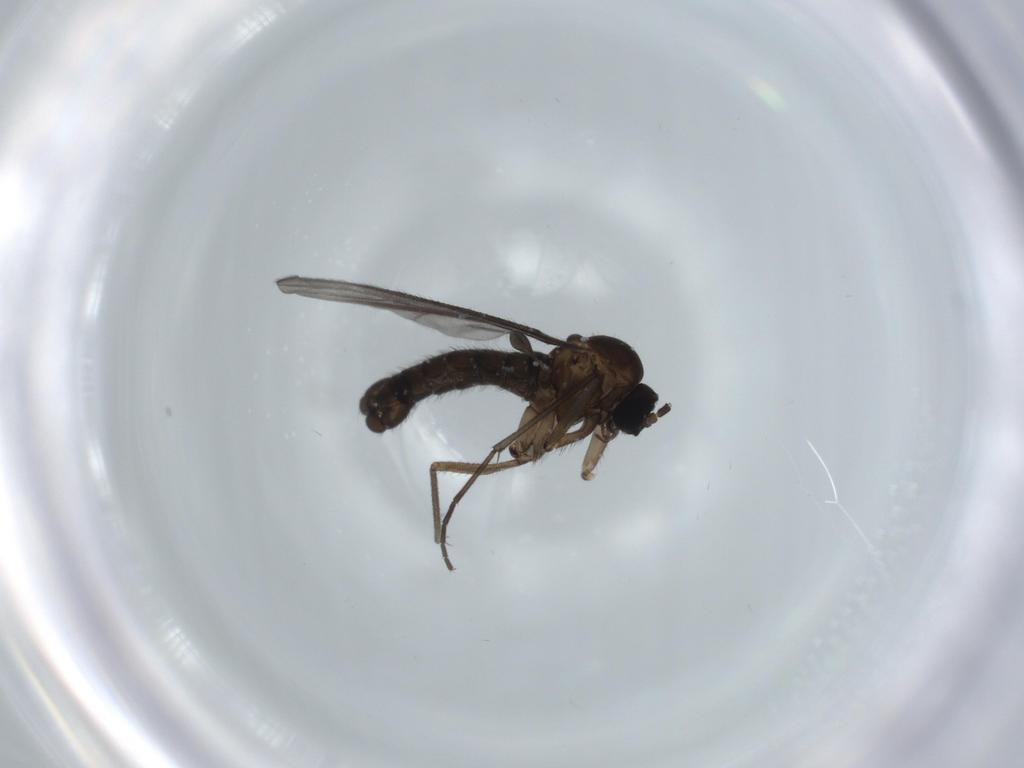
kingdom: Animalia
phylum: Arthropoda
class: Insecta
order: Diptera
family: Sciaridae
